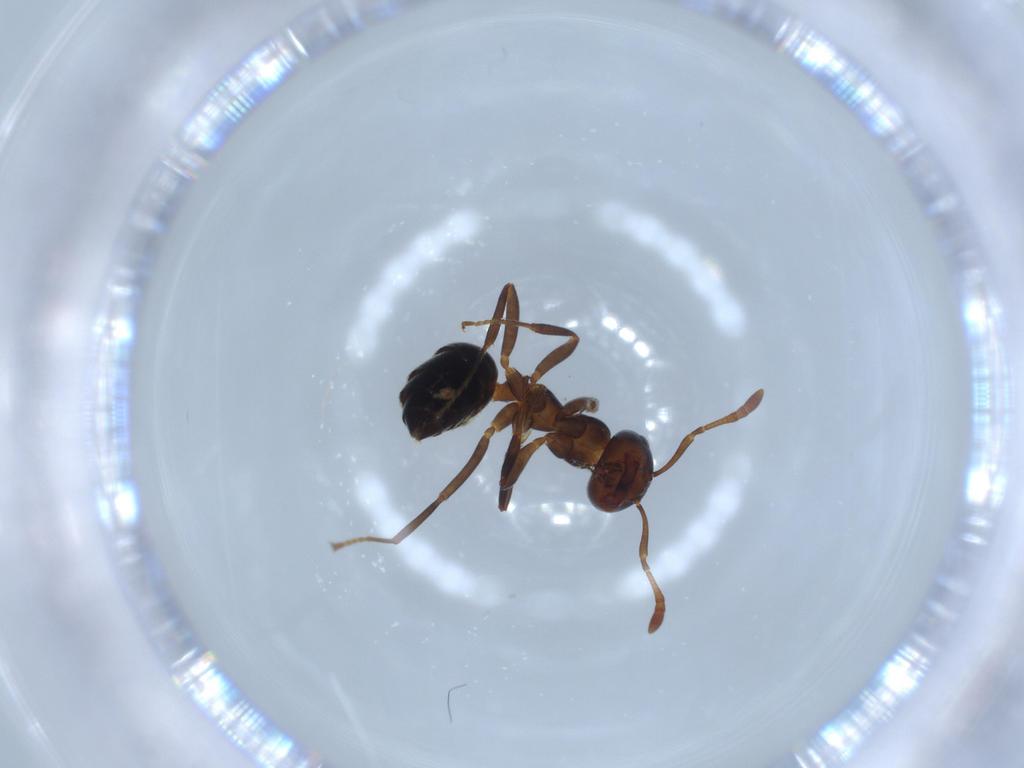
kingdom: Animalia
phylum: Arthropoda
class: Insecta
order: Hymenoptera
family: Formicidae
